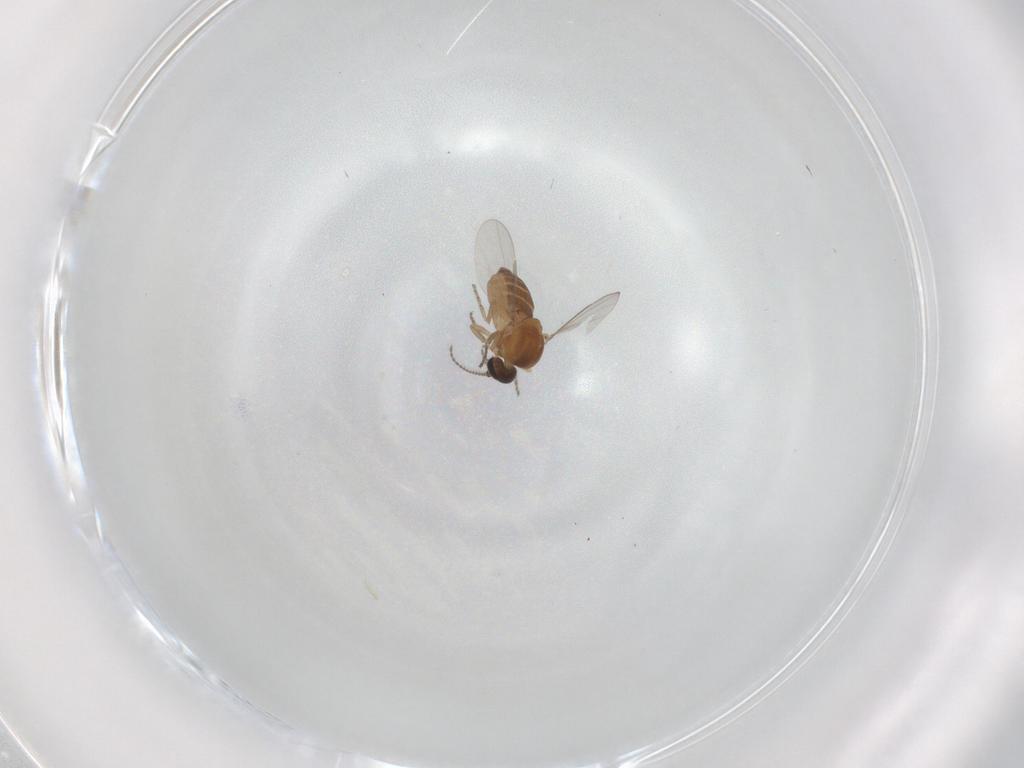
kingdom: Animalia
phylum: Arthropoda
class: Insecta
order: Diptera
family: Ceratopogonidae
